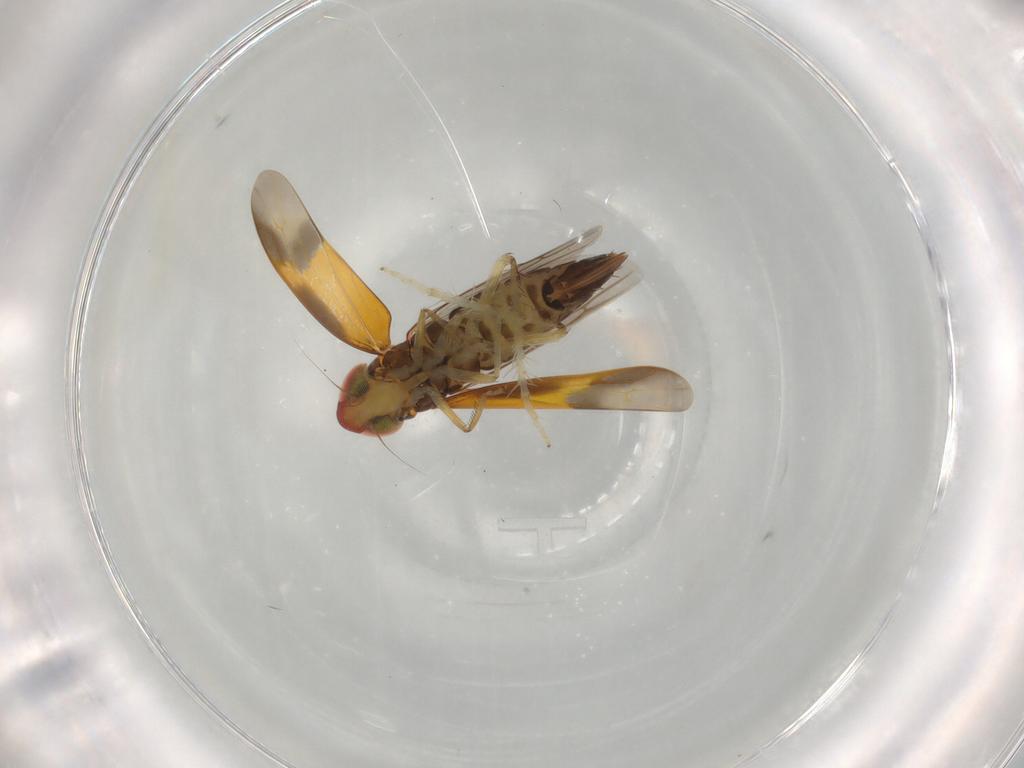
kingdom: Animalia
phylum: Arthropoda
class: Insecta
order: Hemiptera
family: Cicadellidae
